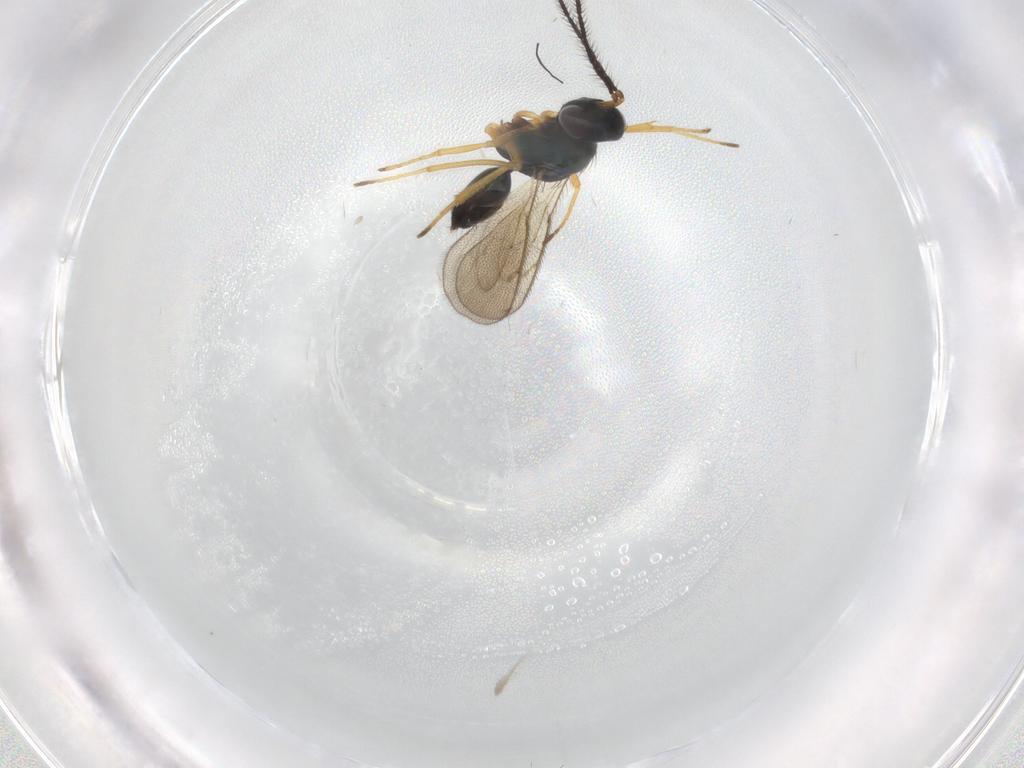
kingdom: Animalia
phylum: Arthropoda
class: Insecta
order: Hymenoptera
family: Diparidae
